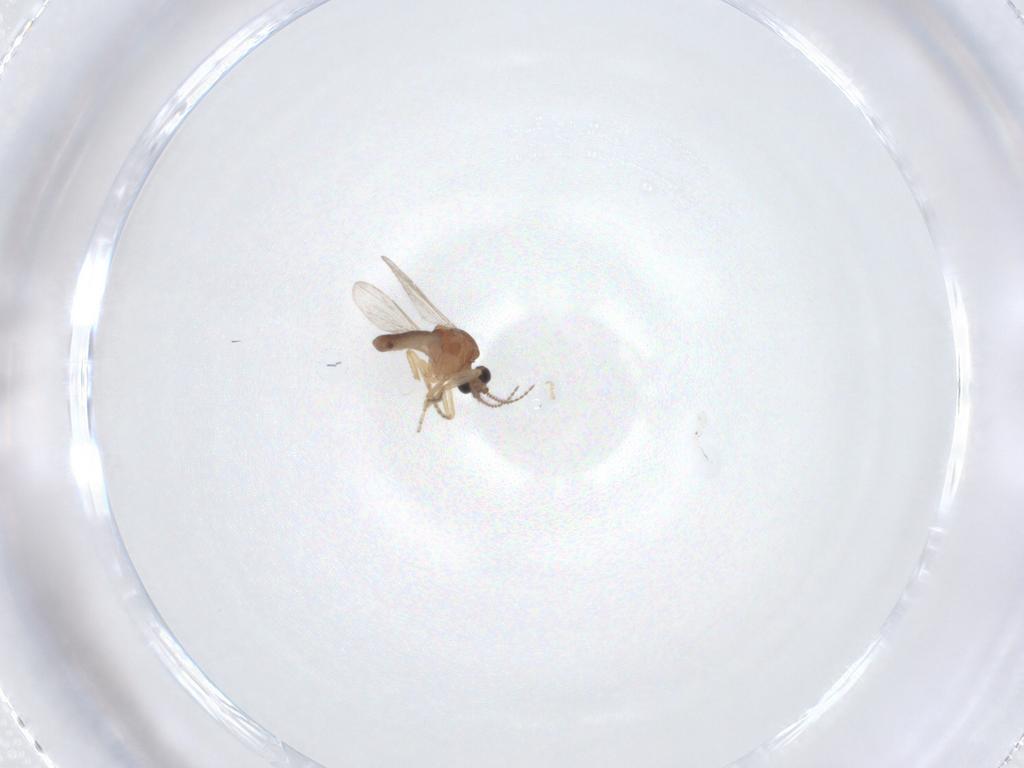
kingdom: Animalia
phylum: Arthropoda
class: Insecta
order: Diptera
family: Ceratopogonidae
